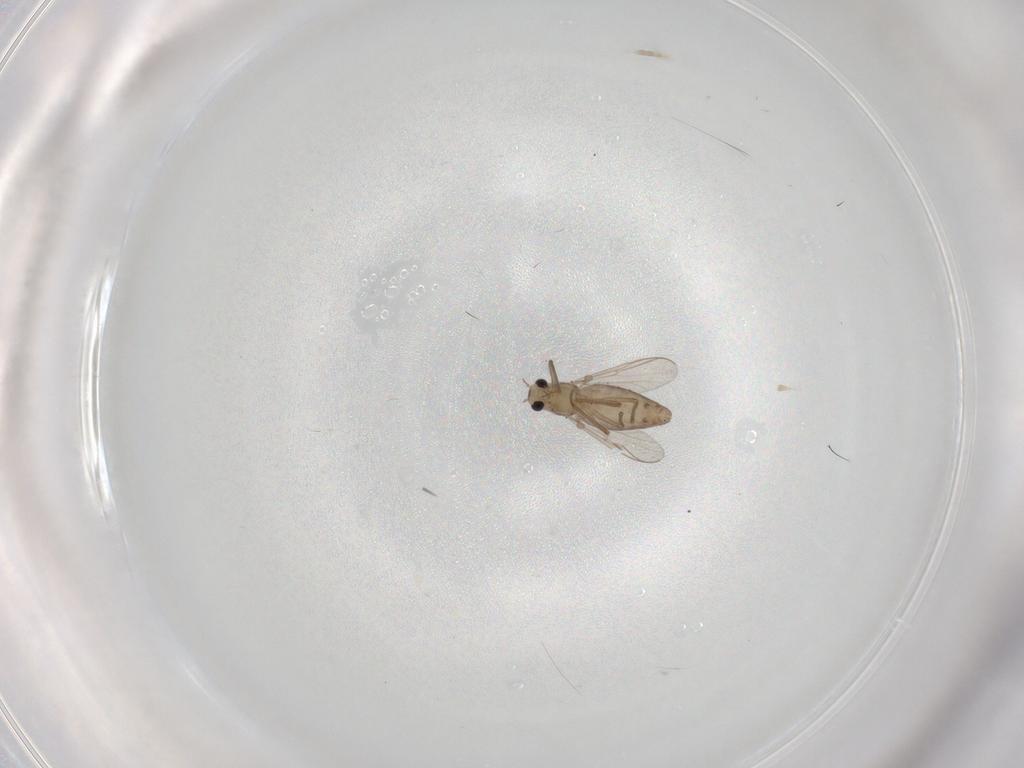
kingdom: Animalia
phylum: Arthropoda
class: Insecta
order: Diptera
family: Chironomidae
